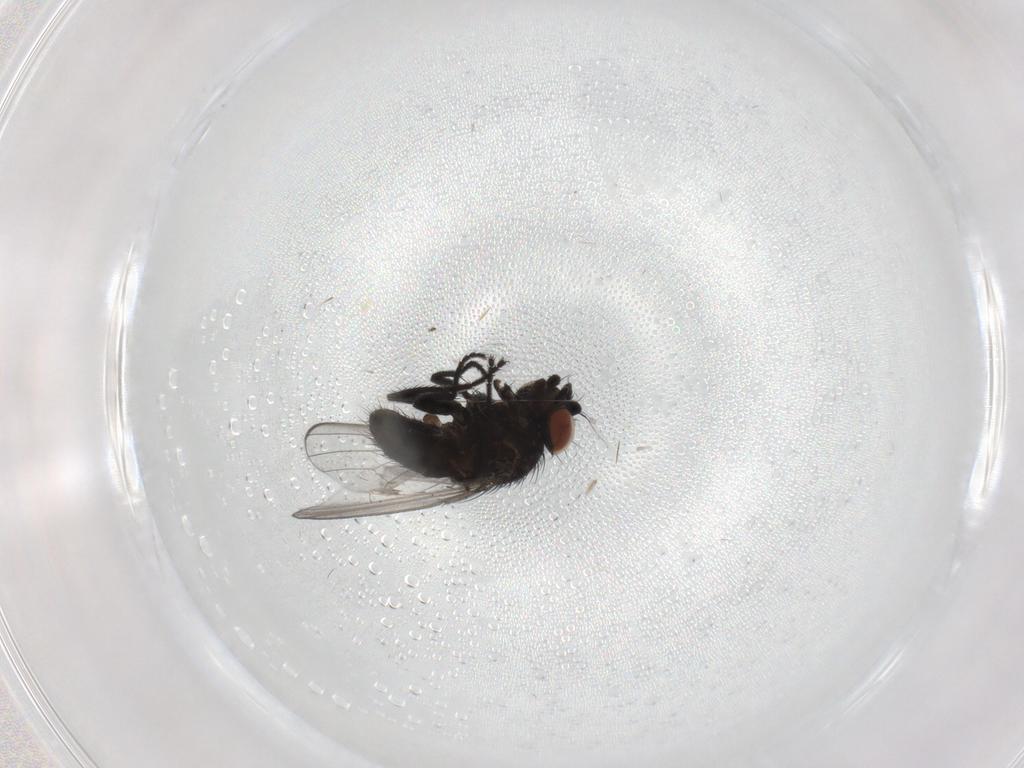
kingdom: Animalia
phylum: Arthropoda
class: Insecta
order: Diptera
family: Milichiidae
